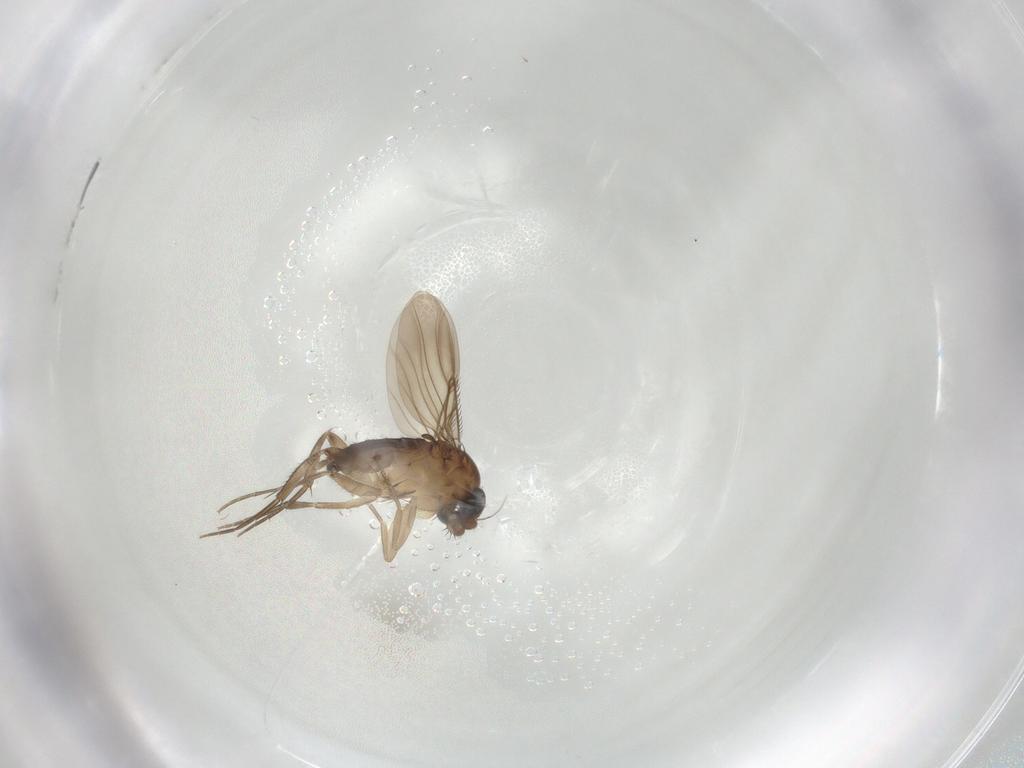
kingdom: Animalia
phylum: Arthropoda
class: Insecta
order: Diptera
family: Phoridae
